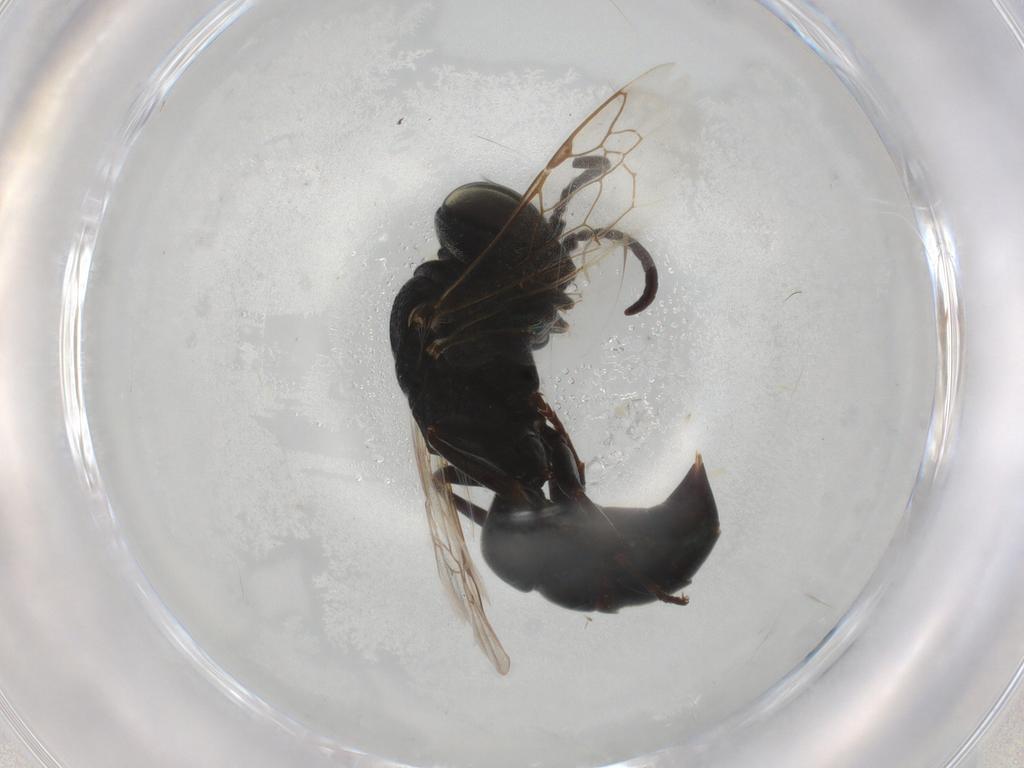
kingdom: Animalia
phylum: Arthropoda
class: Insecta
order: Hymenoptera
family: Crabronidae
